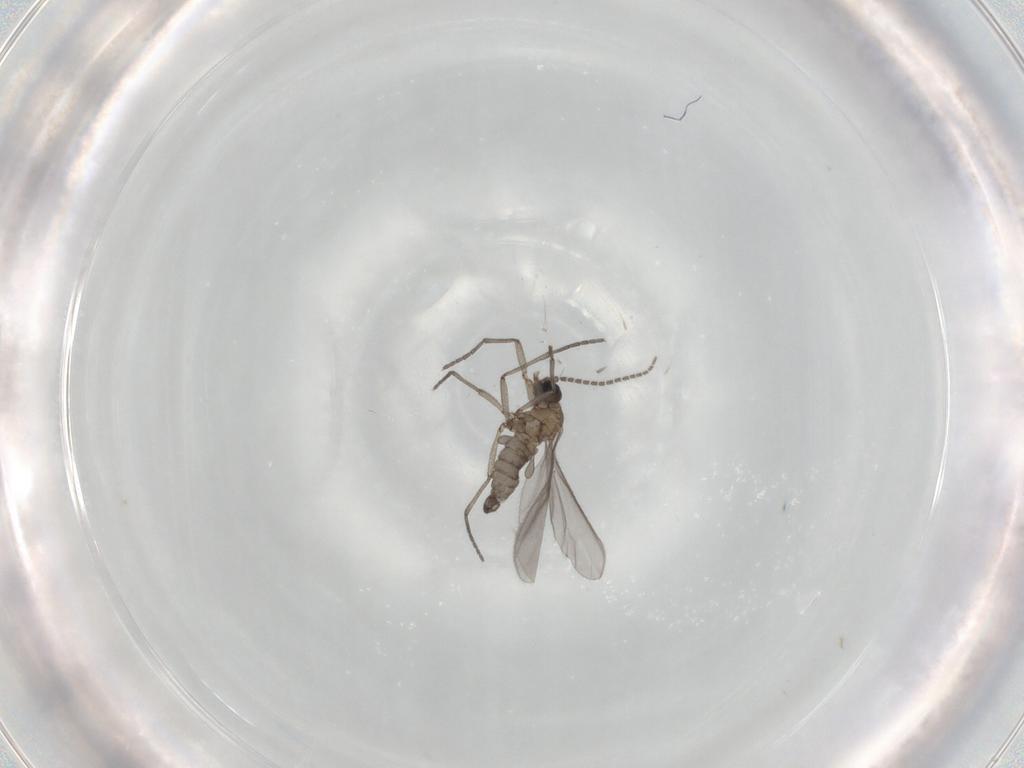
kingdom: Animalia
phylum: Arthropoda
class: Insecta
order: Diptera
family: Sciaridae
